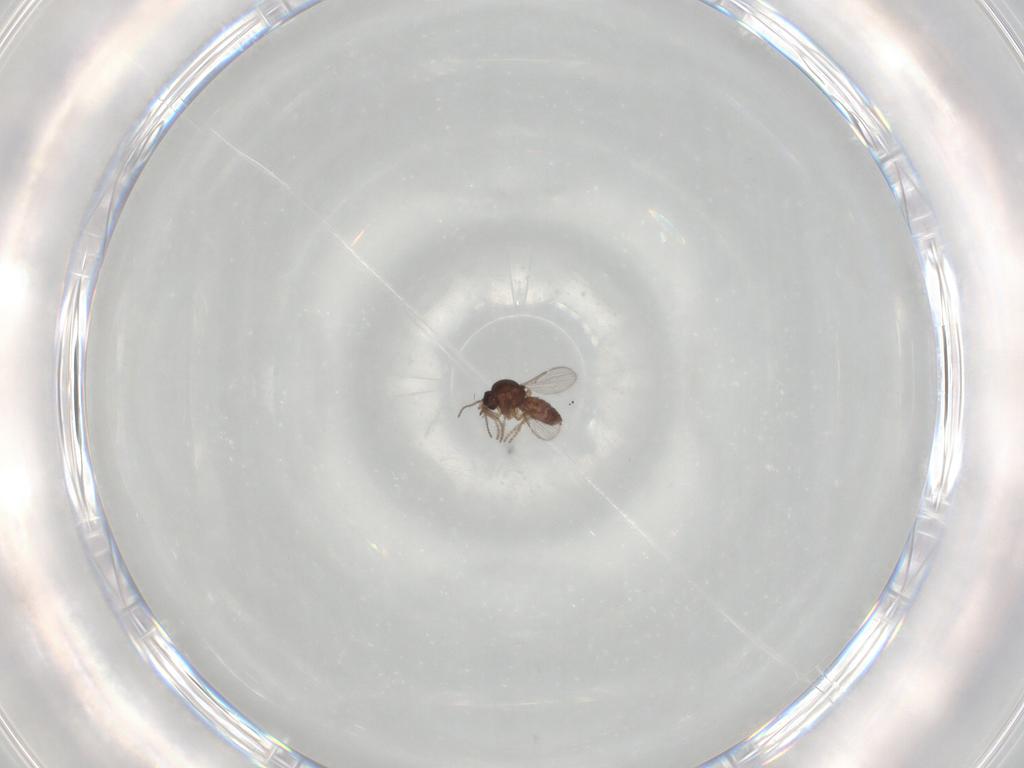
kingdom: Animalia
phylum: Arthropoda
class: Insecta
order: Diptera
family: Ceratopogonidae
